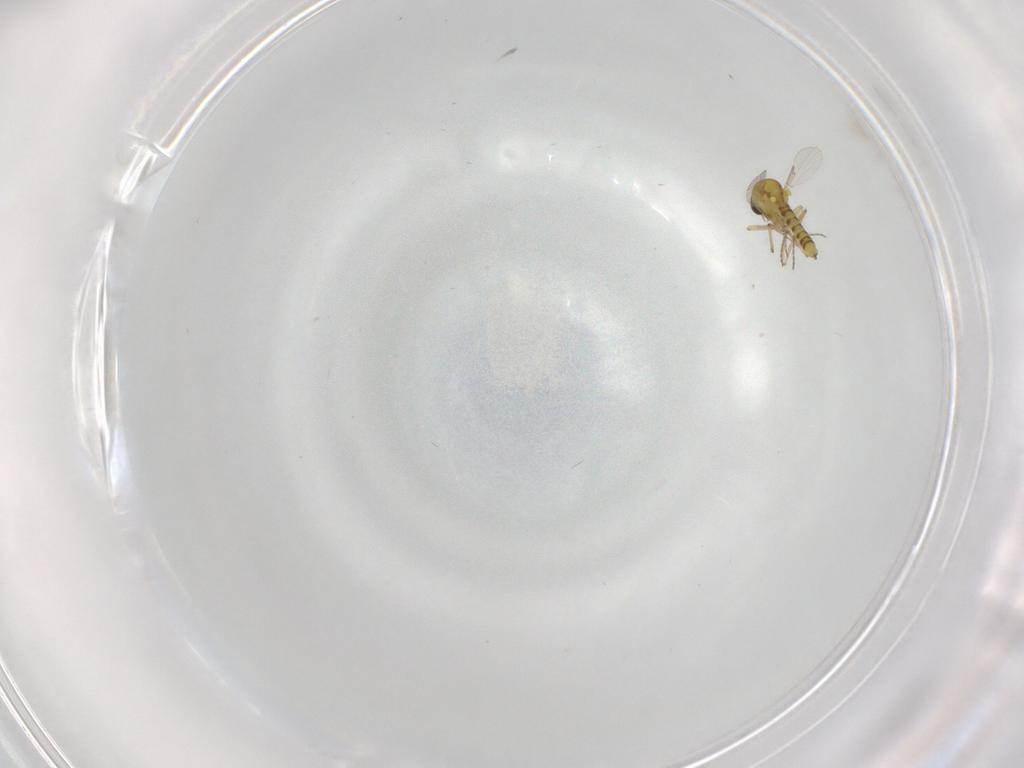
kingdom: Animalia
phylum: Arthropoda
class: Insecta
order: Diptera
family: Ceratopogonidae
